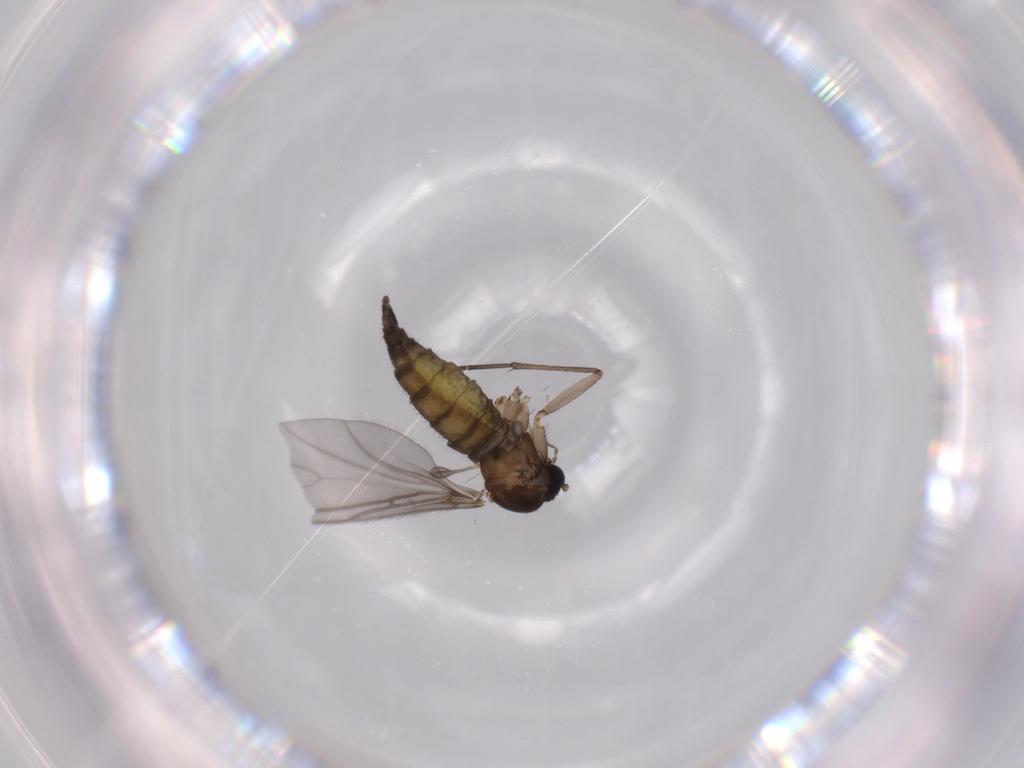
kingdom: Animalia
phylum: Arthropoda
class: Insecta
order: Diptera
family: Sciaridae
